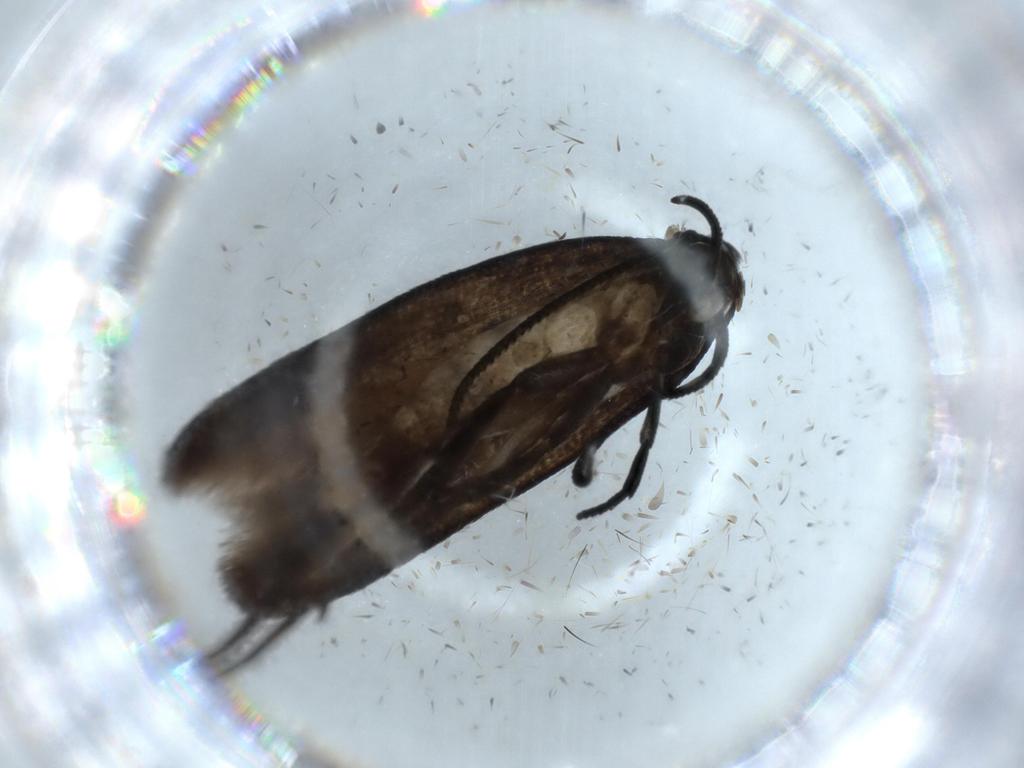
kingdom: Animalia
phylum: Arthropoda
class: Insecta
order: Lepidoptera
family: Cosmopterigidae
